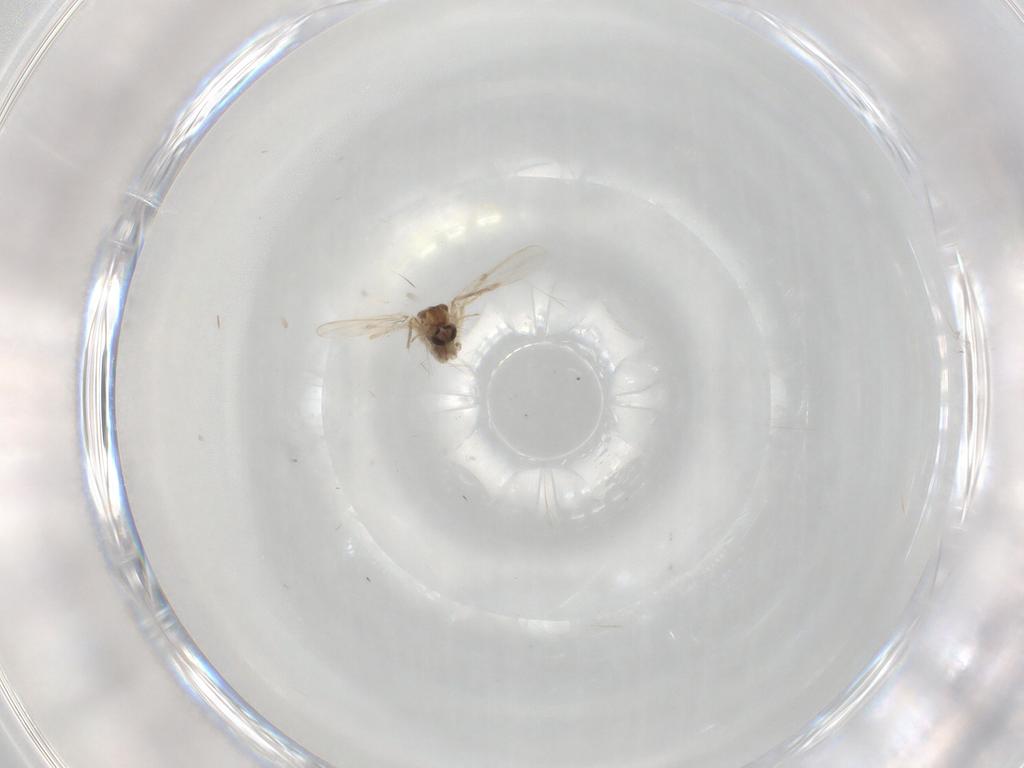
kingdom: Animalia
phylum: Arthropoda
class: Insecta
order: Diptera
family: Chironomidae
